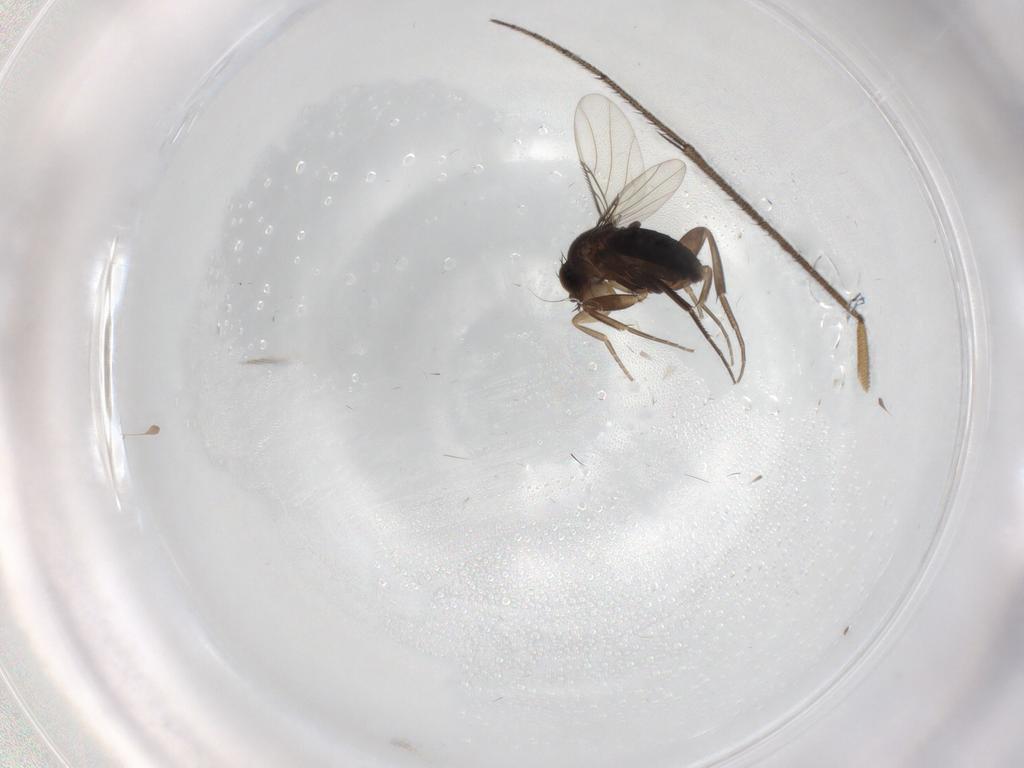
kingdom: Animalia
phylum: Arthropoda
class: Insecta
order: Diptera
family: Phoridae
